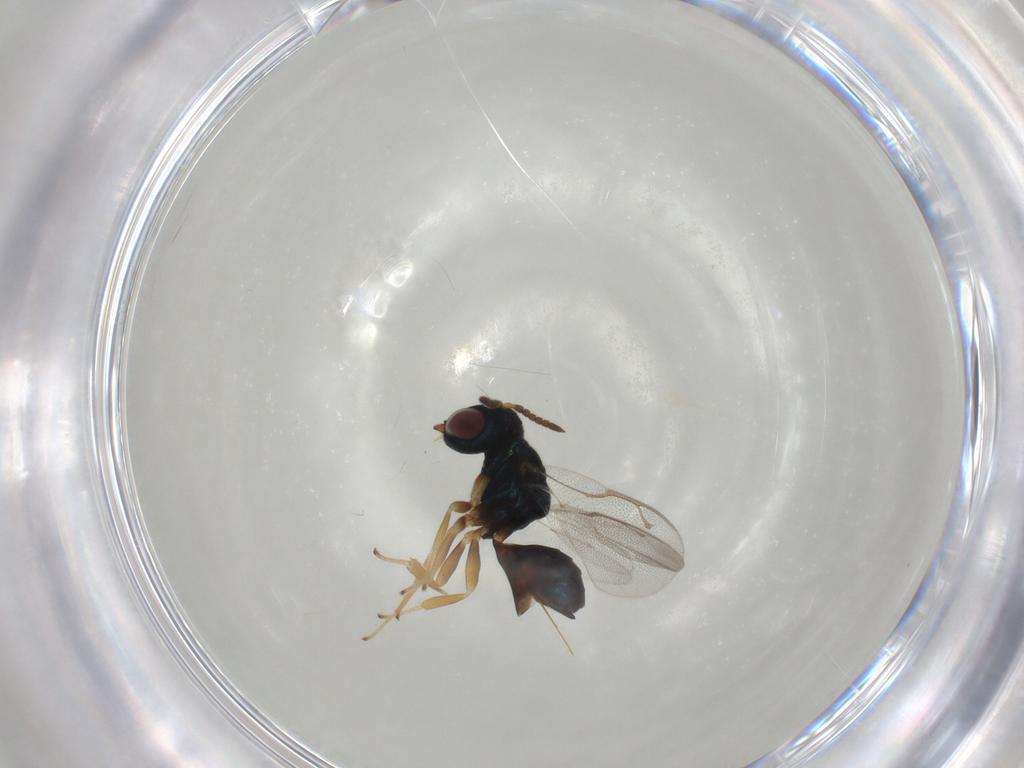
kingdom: Animalia
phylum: Arthropoda
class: Insecta
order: Hymenoptera
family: Pteromalidae
